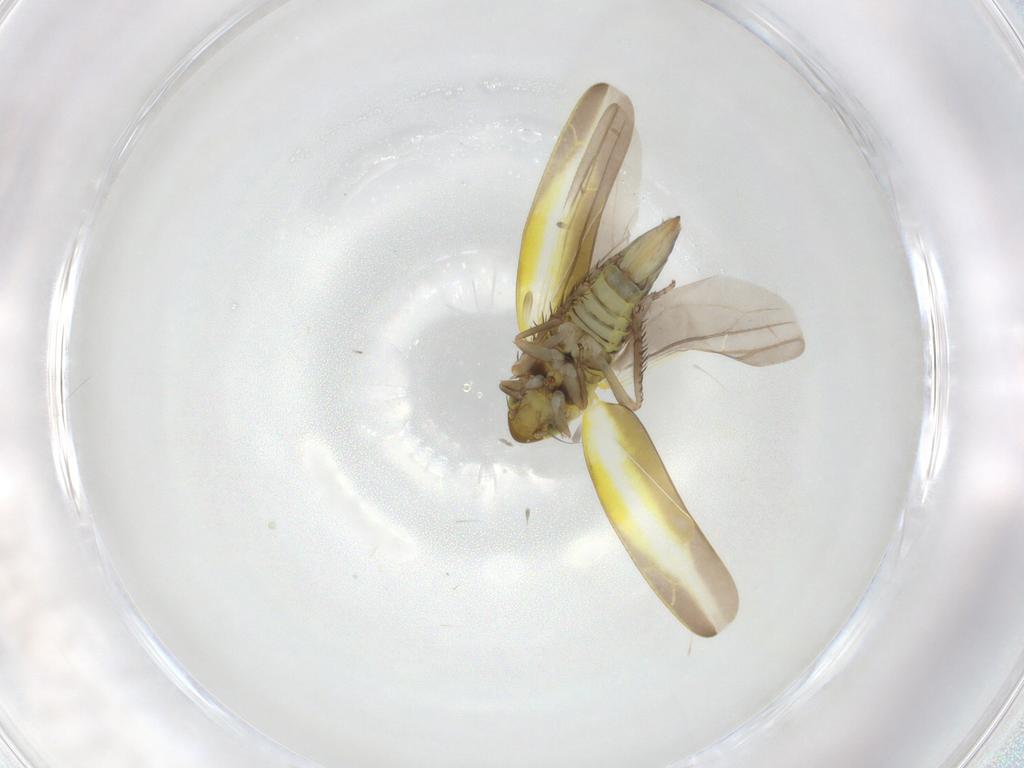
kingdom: Animalia
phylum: Arthropoda
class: Insecta
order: Hemiptera
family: Cicadellidae
